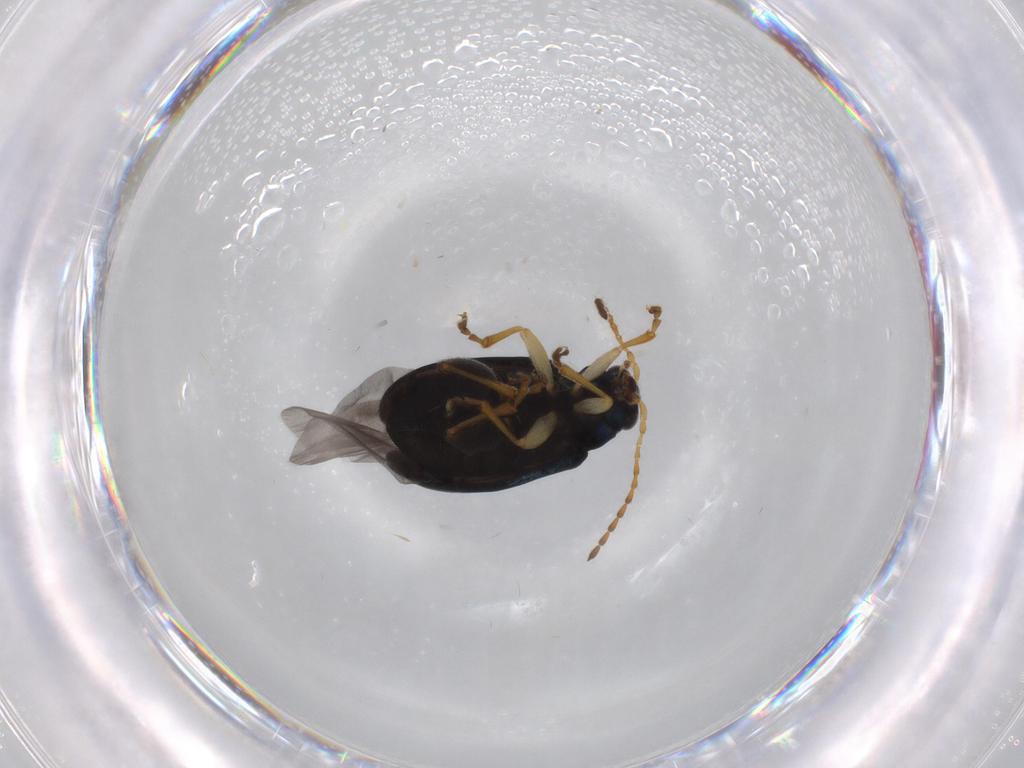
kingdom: Animalia
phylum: Arthropoda
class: Insecta
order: Coleoptera
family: Chrysomelidae
